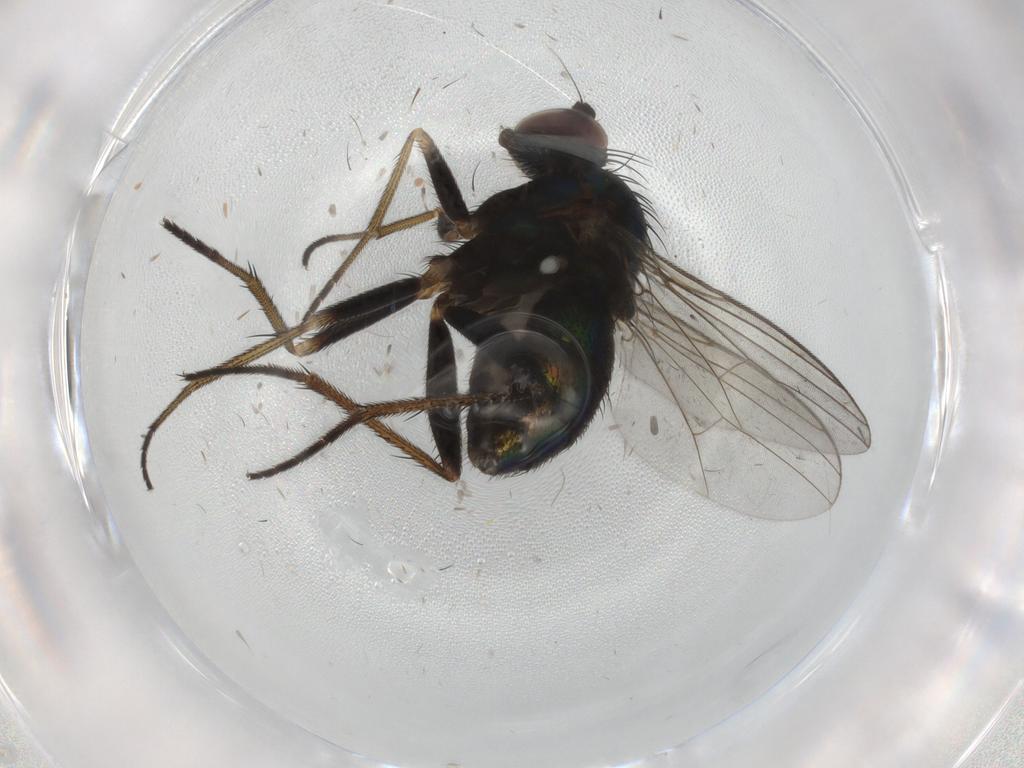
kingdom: Animalia
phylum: Arthropoda
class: Insecta
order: Diptera
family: Dolichopodidae
